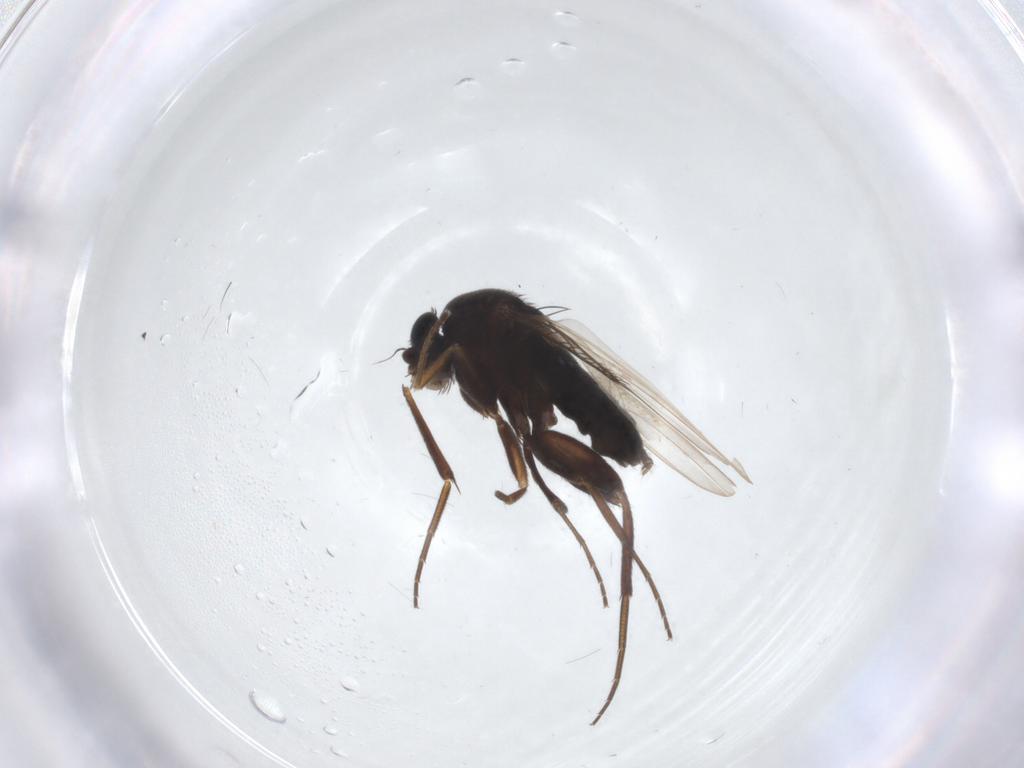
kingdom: Animalia
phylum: Arthropoda
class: Insecta
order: Diptera
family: Phoridae
